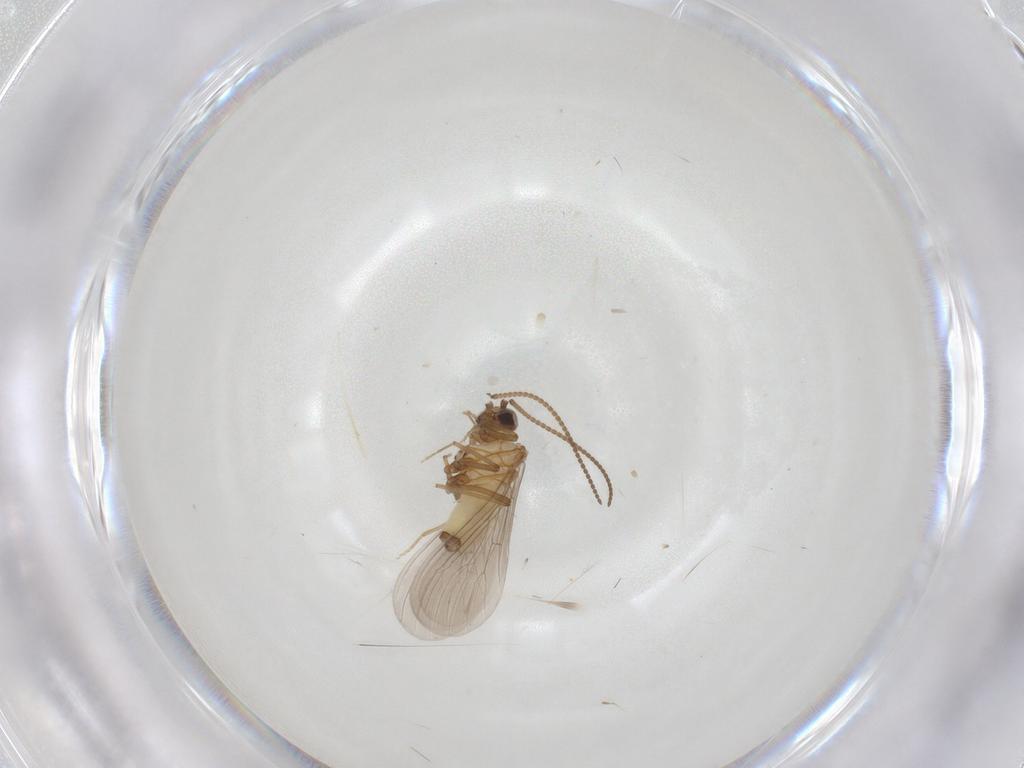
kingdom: Animalia
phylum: Arthropoda
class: Insecta
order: Neuroptera
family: Coniopterygidae
